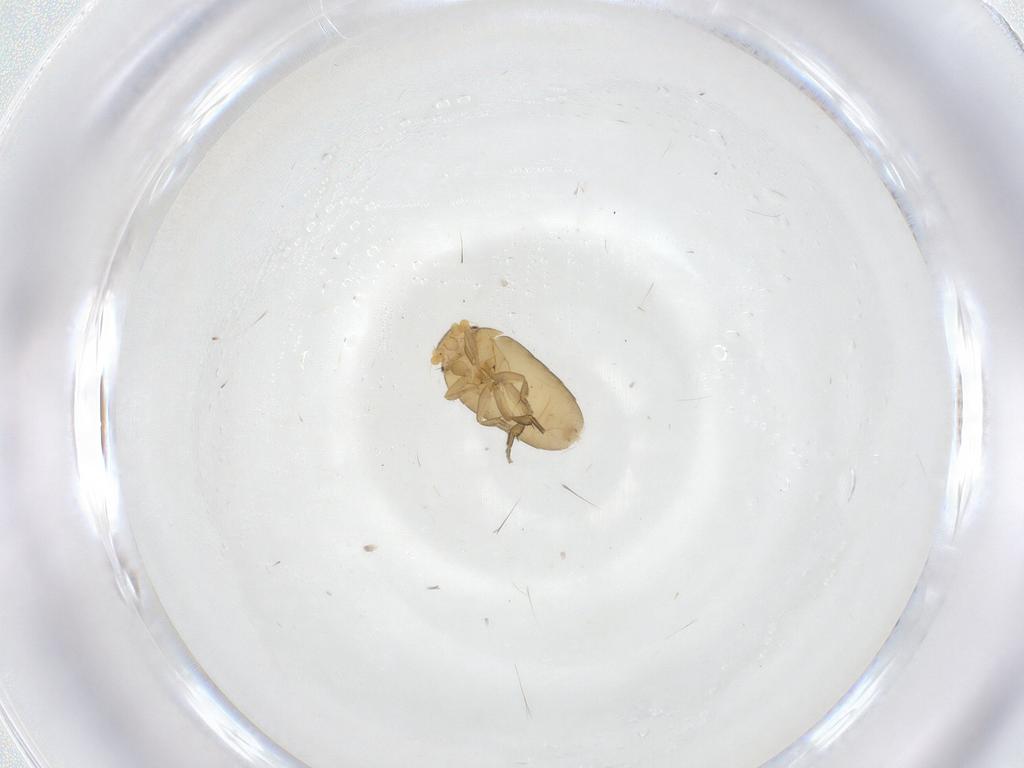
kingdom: Animalia
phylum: Arthropoda
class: Insecta
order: Diptera
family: Phoridae
